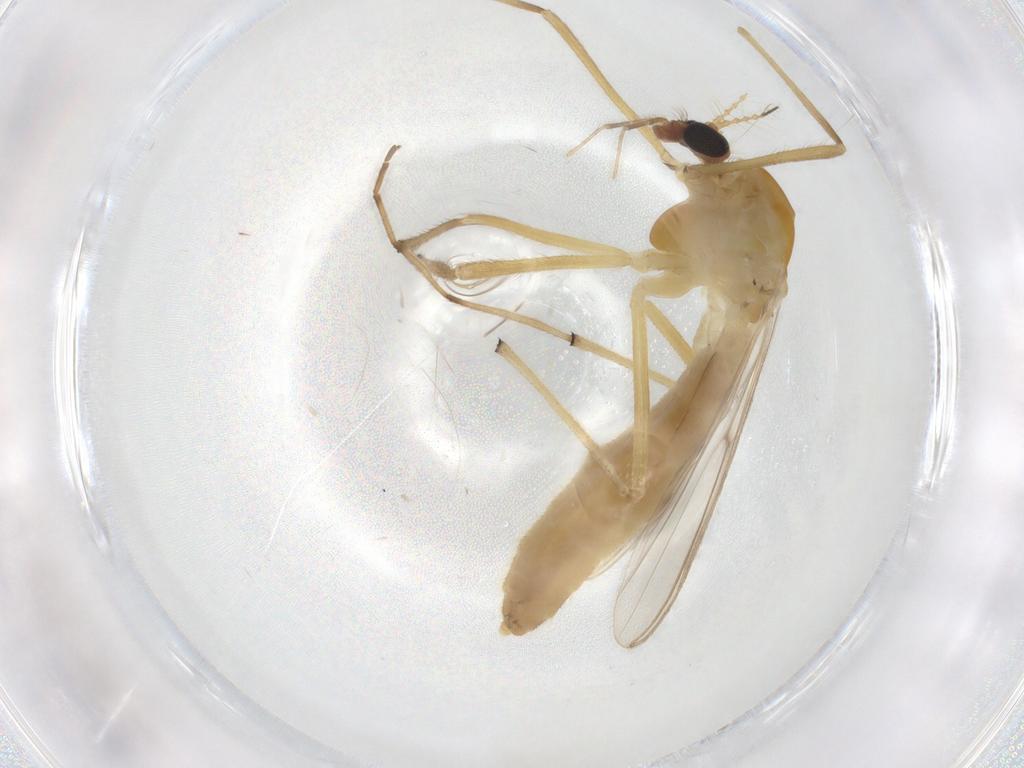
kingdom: Animalia
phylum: Arthropoda
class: Insecta
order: Diptera
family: Chironomidae
